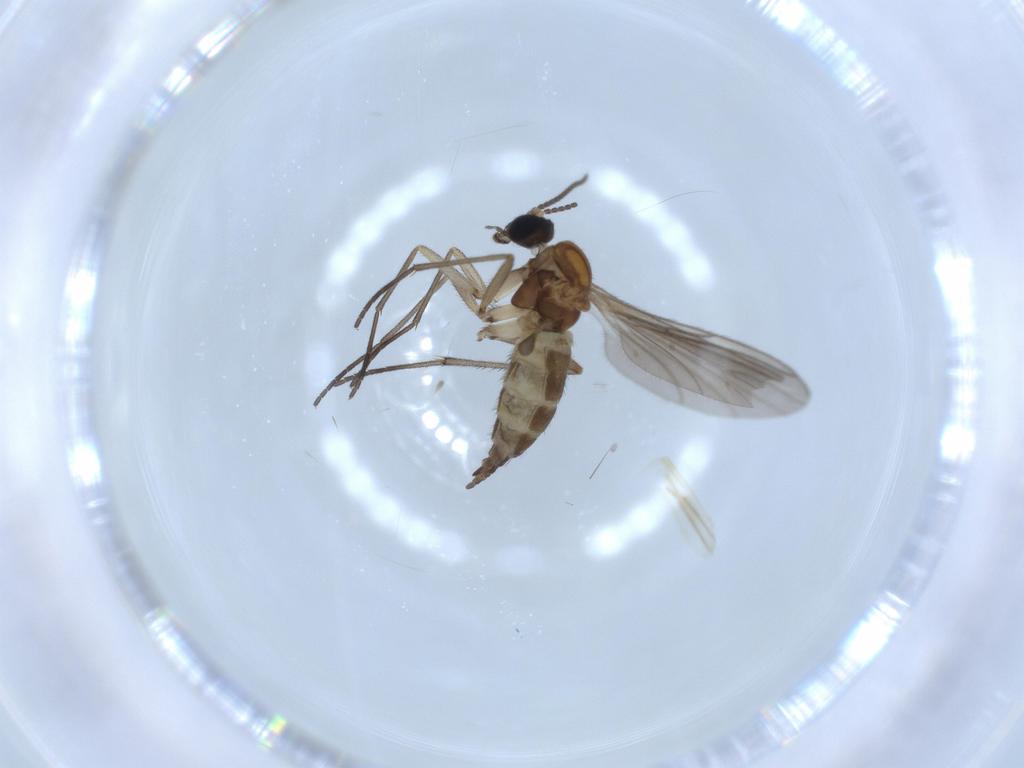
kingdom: Animalia
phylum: Arthropoda
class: Insecta
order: Diptera
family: Sciaridae
